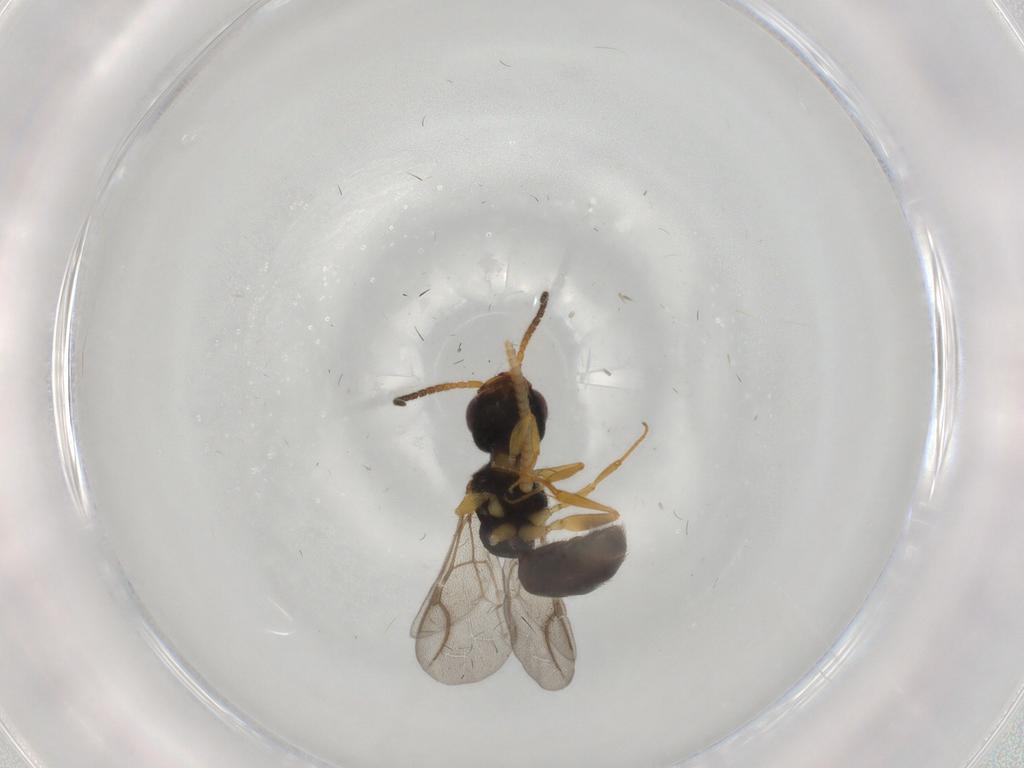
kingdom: Animalia
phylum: Arthropoda
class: Insecta
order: Hymenoptera
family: Bethylidae
